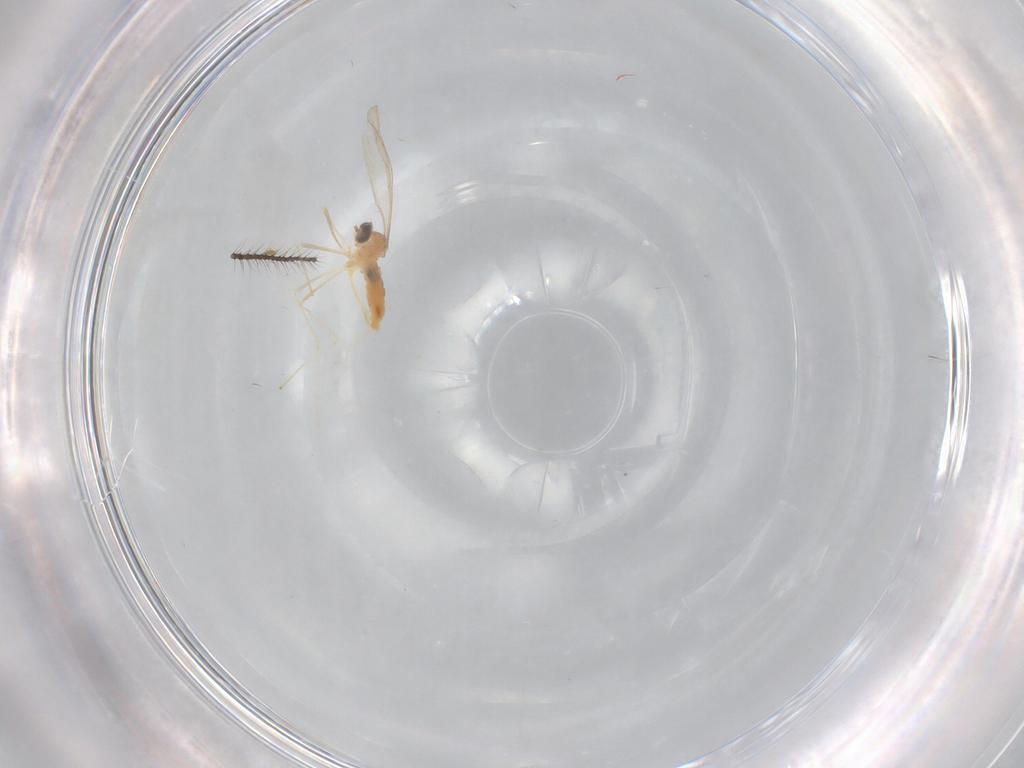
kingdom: Animalia
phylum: Arthropoda
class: Insecta
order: Diptera
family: Cecidomyiidae
